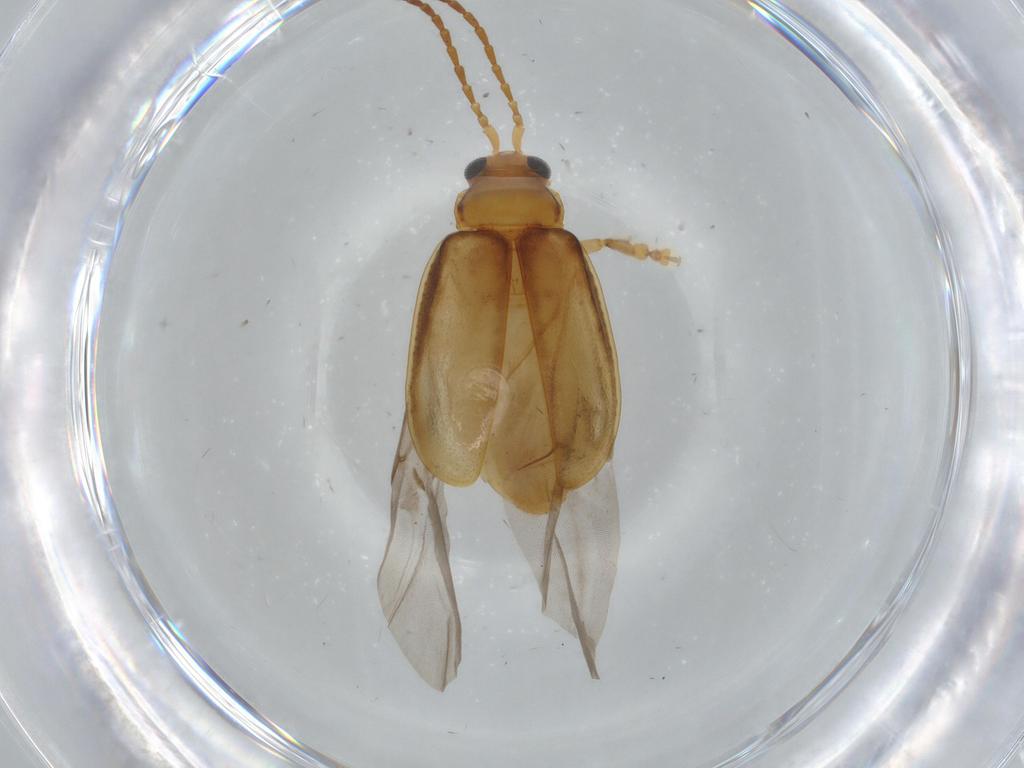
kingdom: Animalia
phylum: Arthropoda
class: Insecta
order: Coleoptera
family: Chrysomelidae
